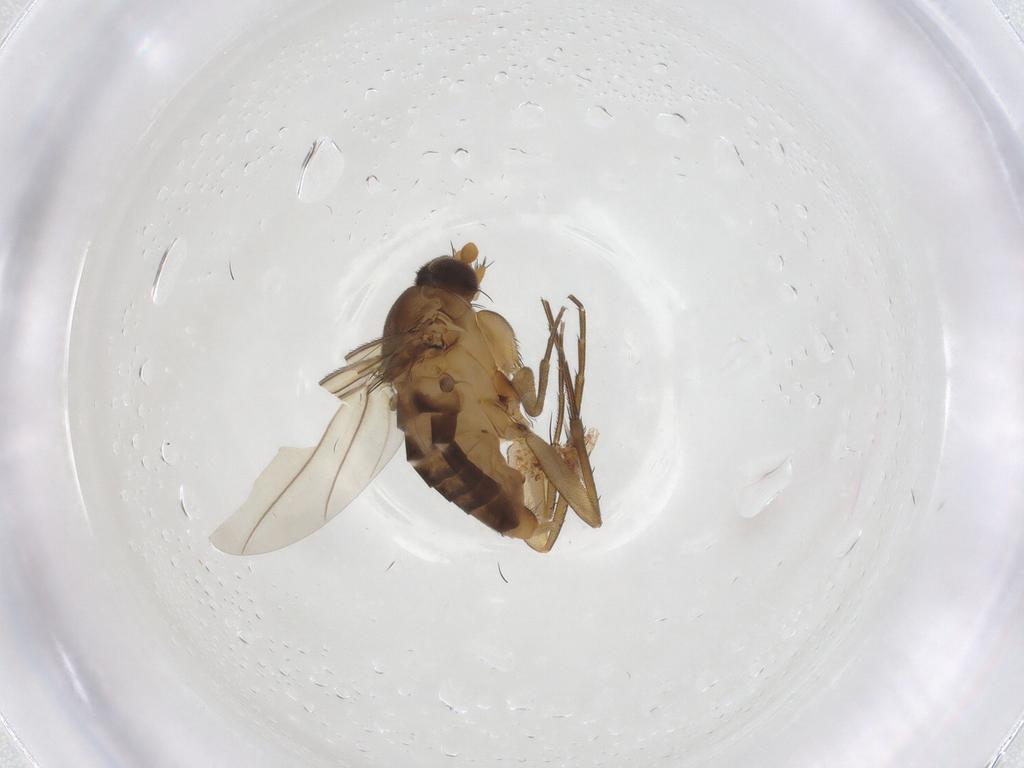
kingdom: Animalia
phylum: Arthropoda
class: Insecta
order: Diptera
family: Phoridae
